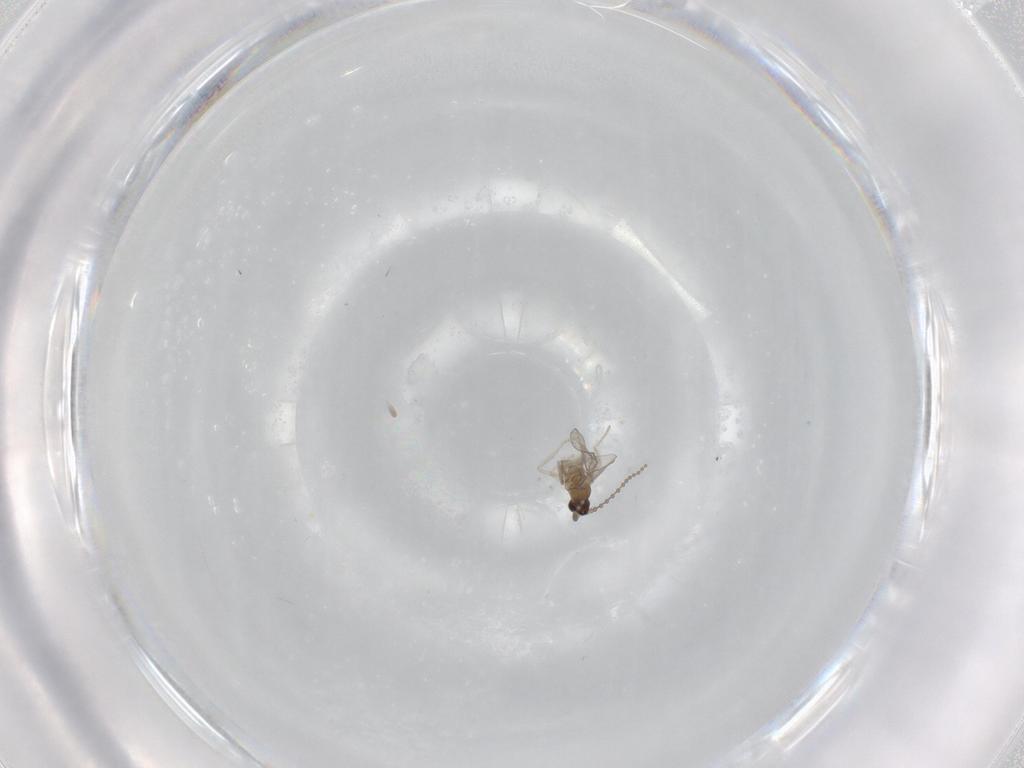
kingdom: Animalia
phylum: Arthropoda
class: Insecta
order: Diptera
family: Cecidomyiidae
